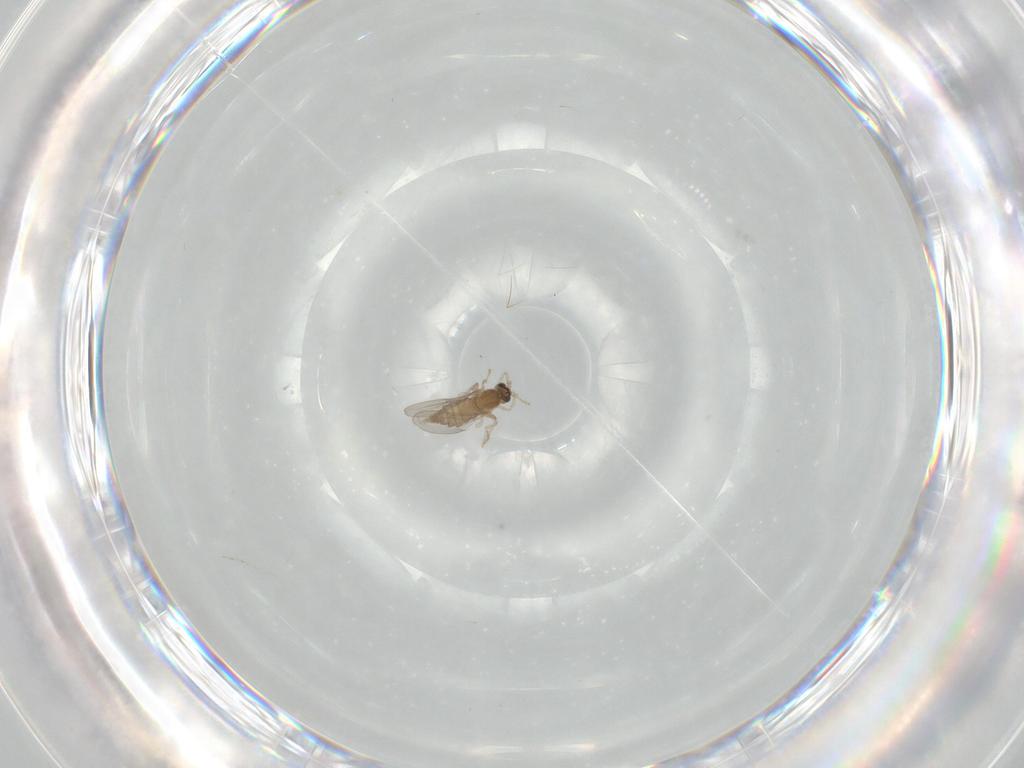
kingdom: Animalia
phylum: Arthropoda
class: Insecta
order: Diptera
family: Cecidomyiidae
